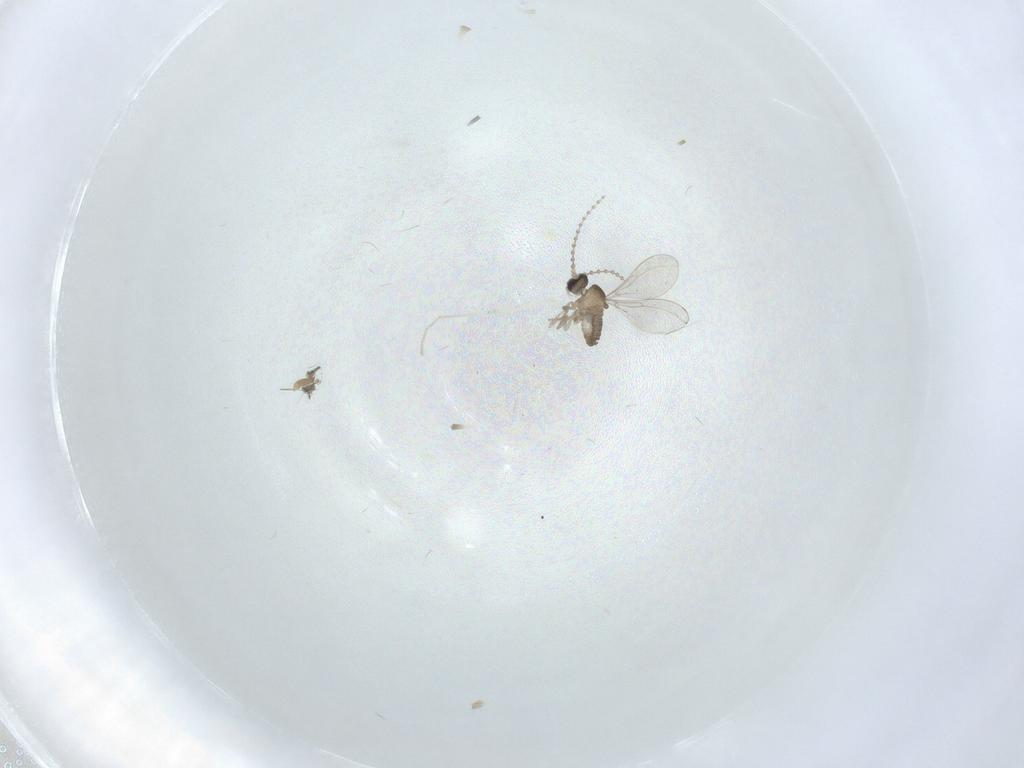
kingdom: Animalia
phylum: Arthropoda
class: Insecta
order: Diptera
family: Cecidomyiidae
